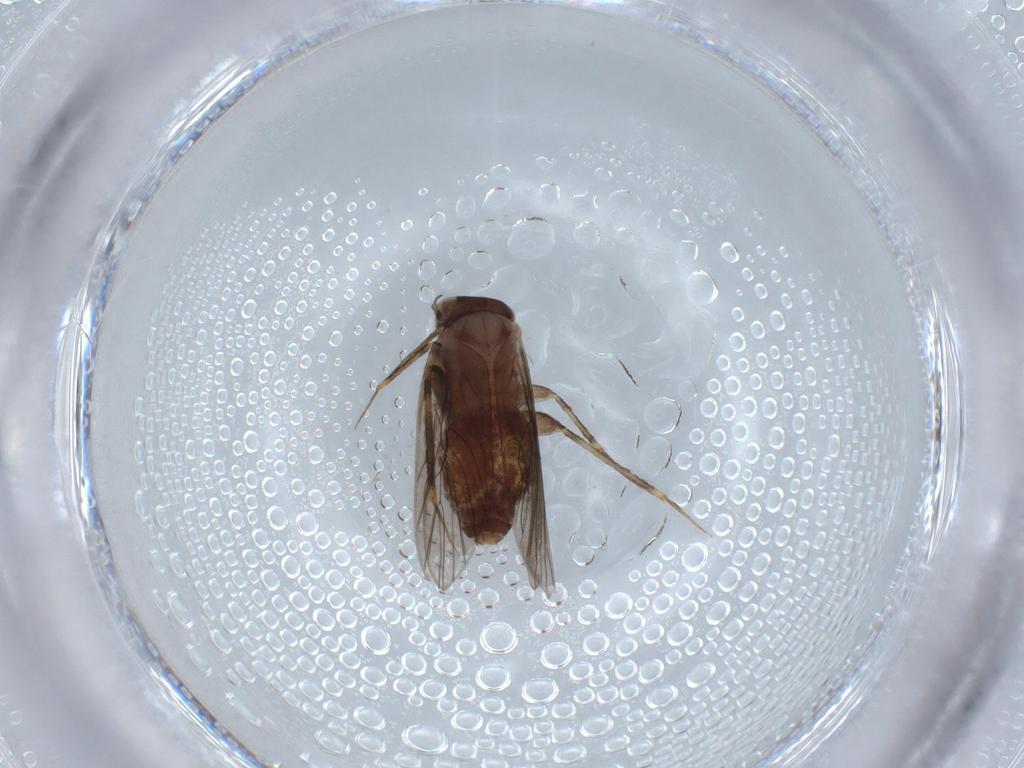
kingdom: Animalia
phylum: Arthropoda
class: Insecta
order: Psocodea
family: Lepidopsocidae
